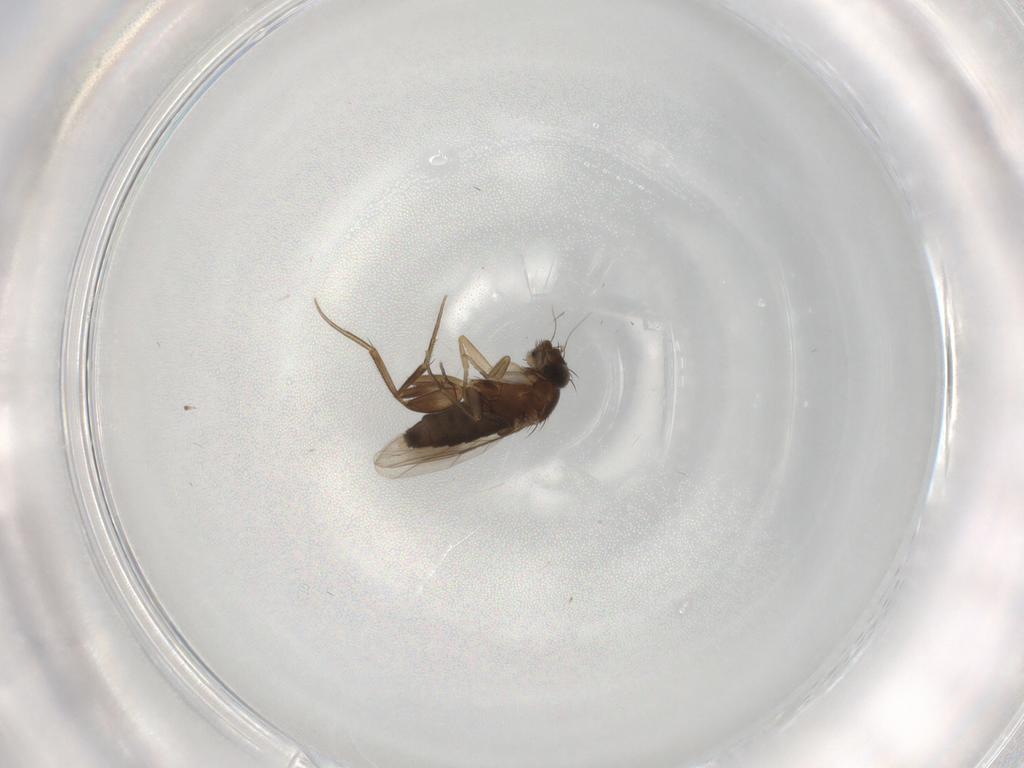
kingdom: Animalia
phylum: Arthropoda
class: Insecta
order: Diptera
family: Phoridae
